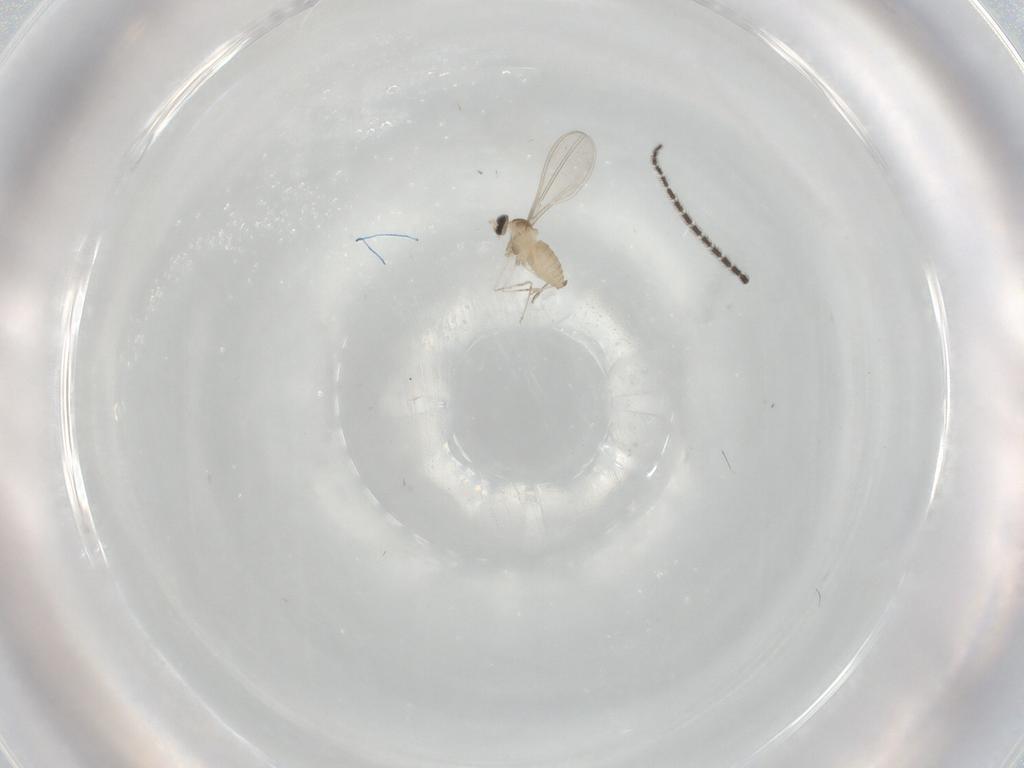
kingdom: Animalia
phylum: Arthropoda
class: Insecta
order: Diptera
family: Cecidomyiidae
